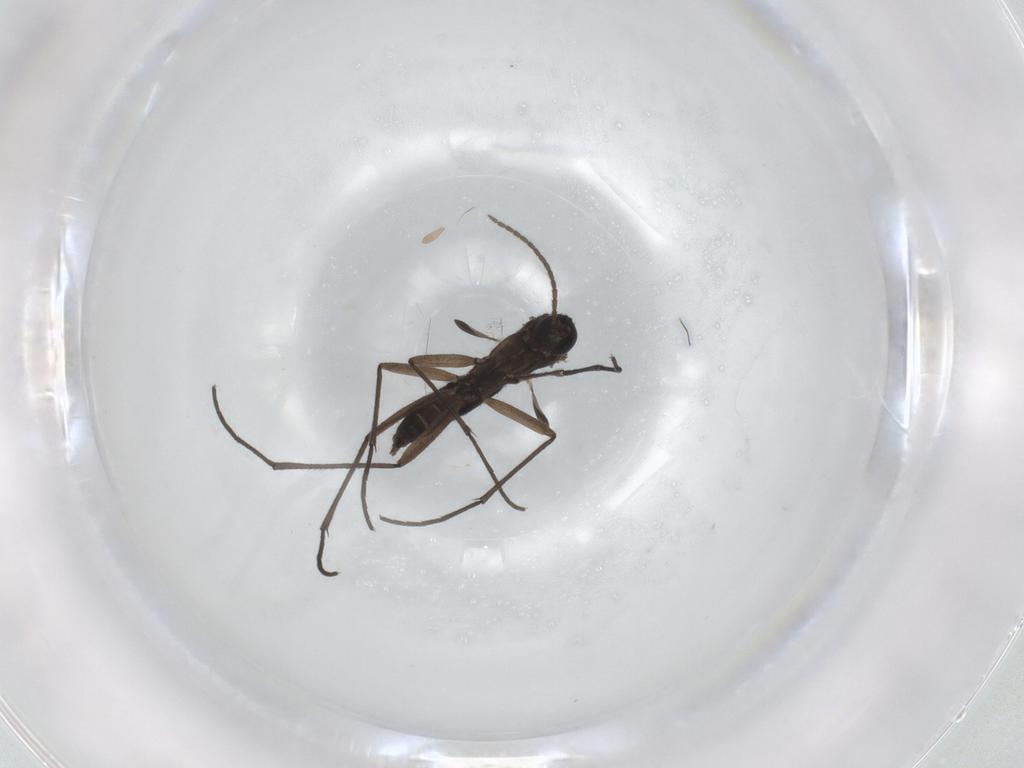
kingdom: Animalia
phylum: Arthropoda
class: Insecta
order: Diptera
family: Sciaridae
